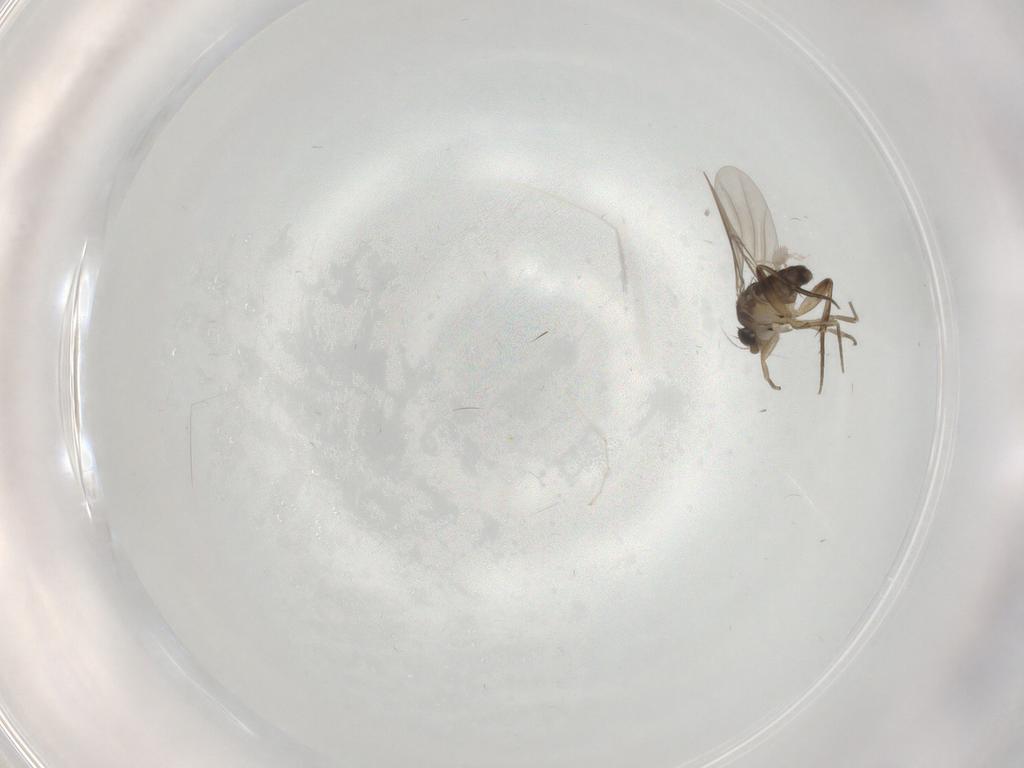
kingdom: Animalia
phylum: Arthropoda
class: Insecta
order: Diptera
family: Phoridae
